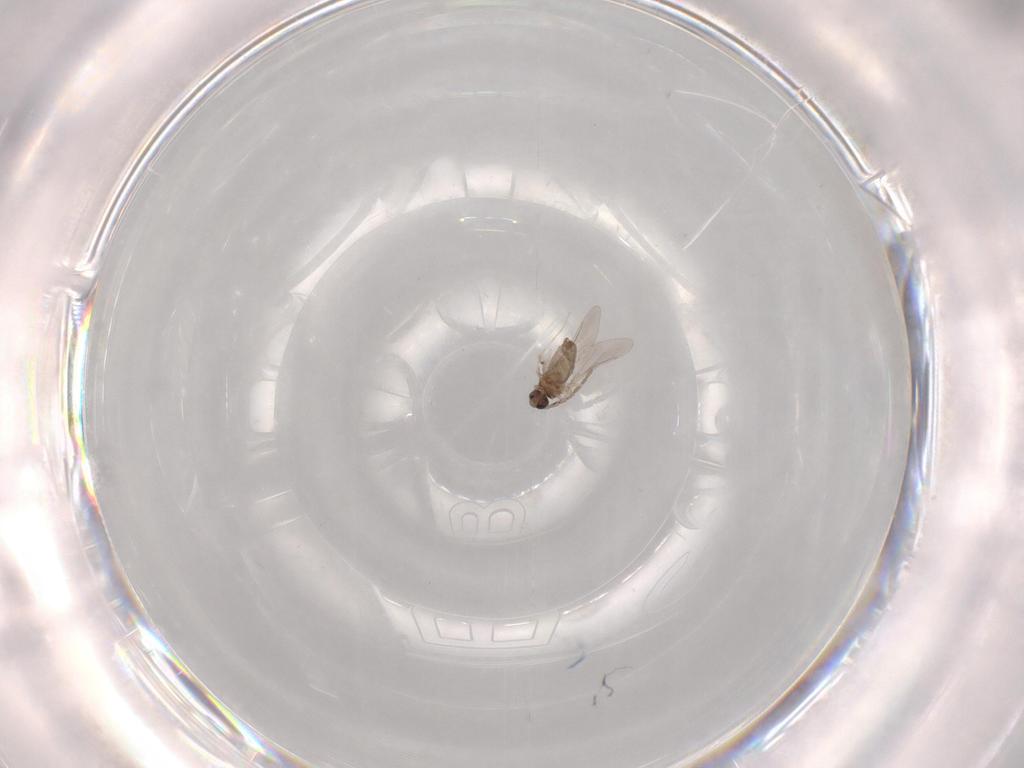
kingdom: Animalia
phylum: Arthropoda
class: Insecta
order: Diptera
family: Cecidomyiidae
